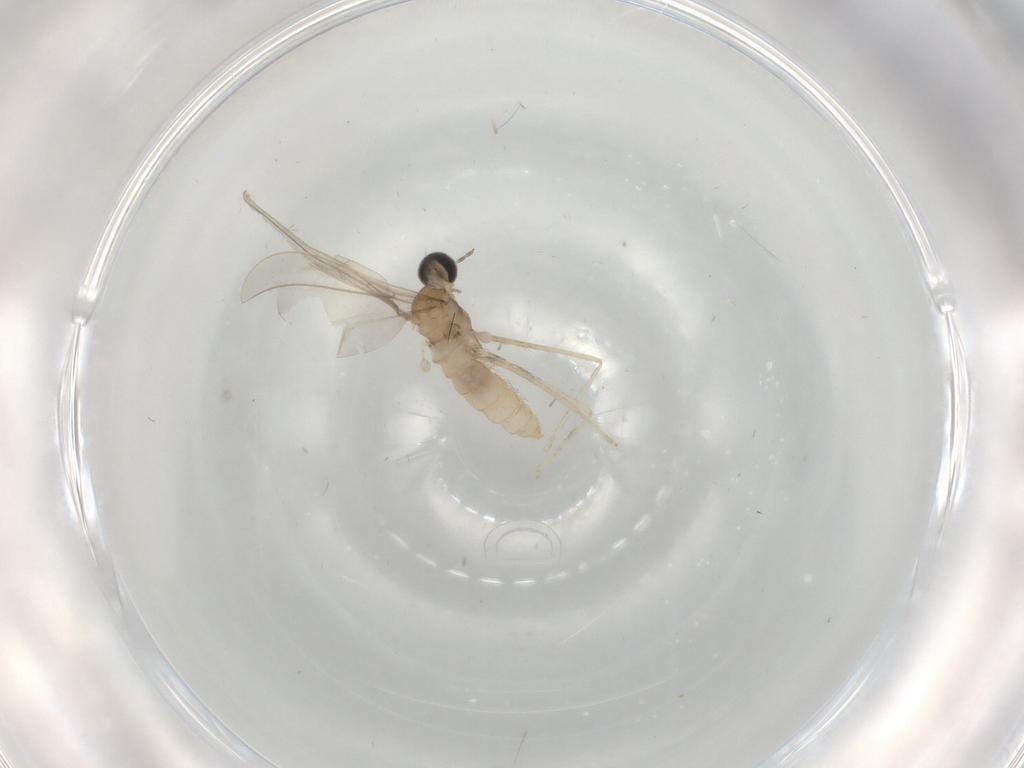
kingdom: Animalia
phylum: Arthropoda
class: Insecta
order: Diptera
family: Cecidomyiidae
